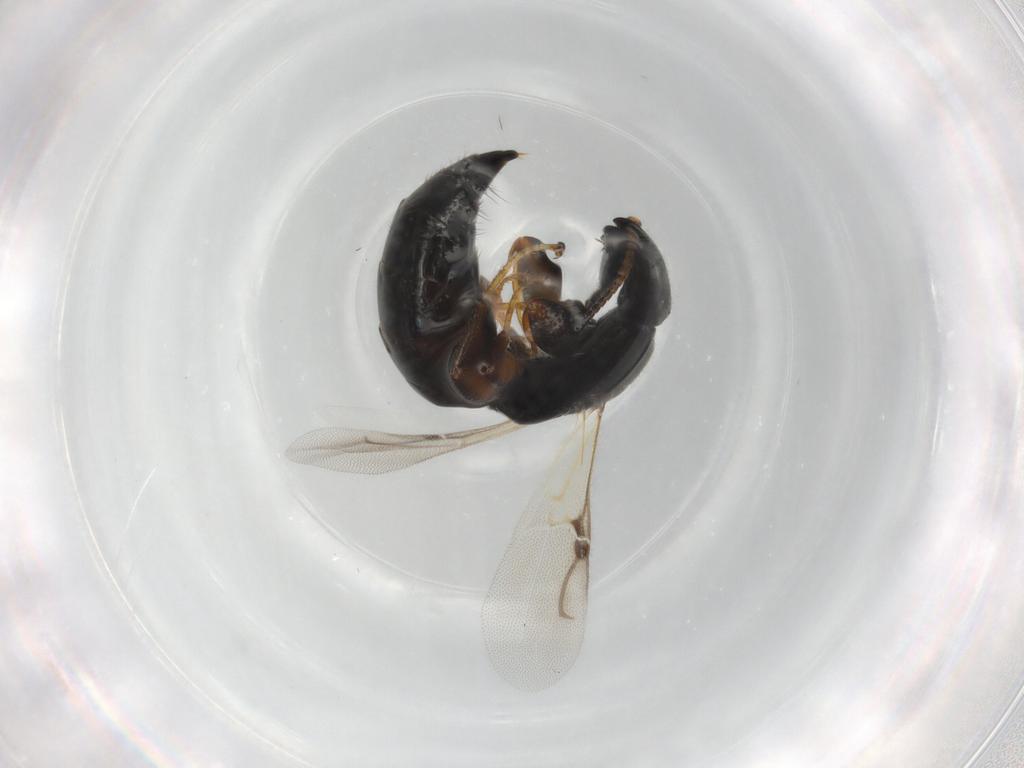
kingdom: Animalia
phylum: Arthropoda
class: Insecta
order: Hymenoptera
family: Bethylidae
